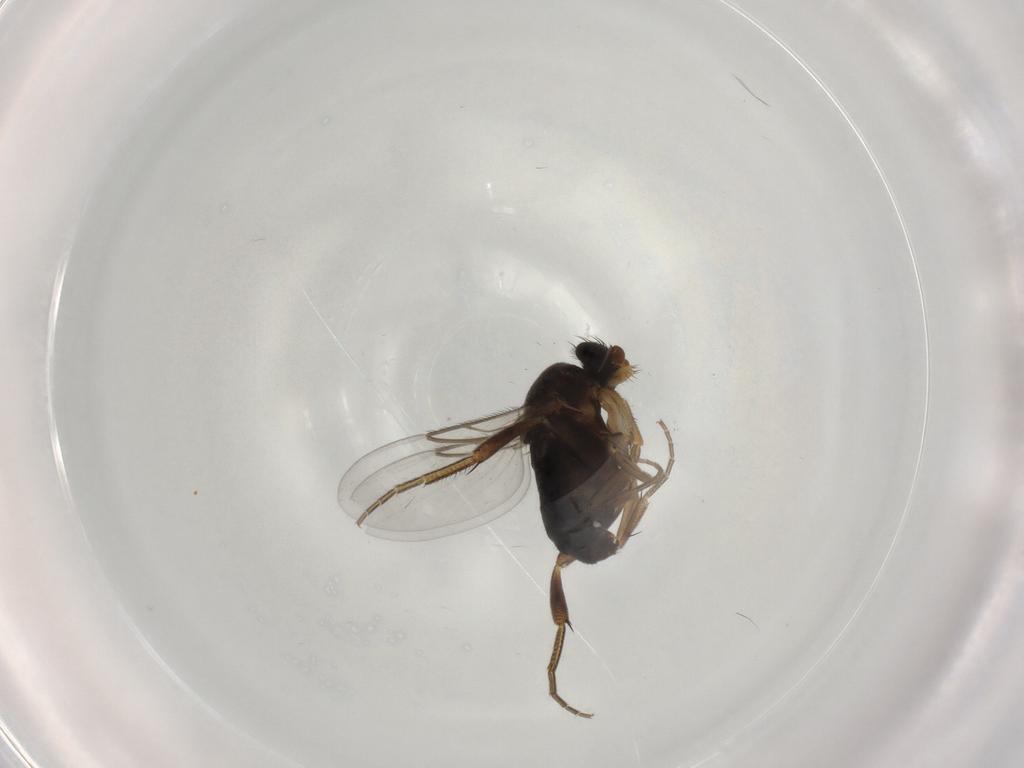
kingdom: Animalia
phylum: Arthropoda
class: Insecta
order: Diptera
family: Phoridae
